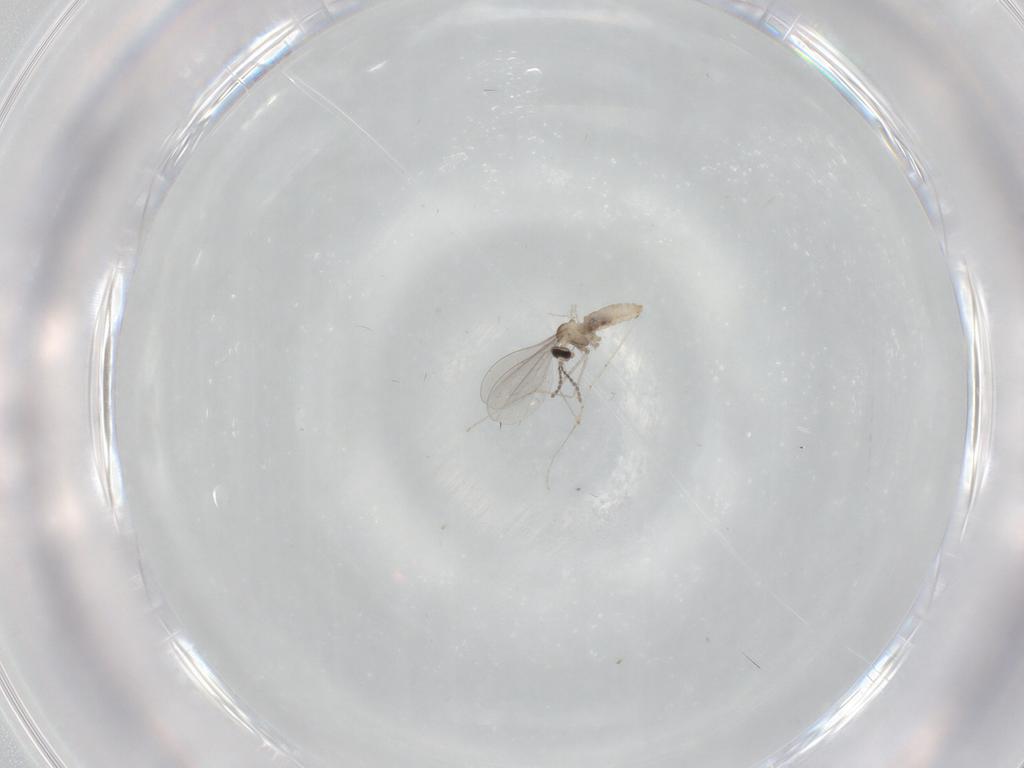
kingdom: Animalia
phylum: Arthropoda
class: Insecta
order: Diptera
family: Cecidomyiidae
